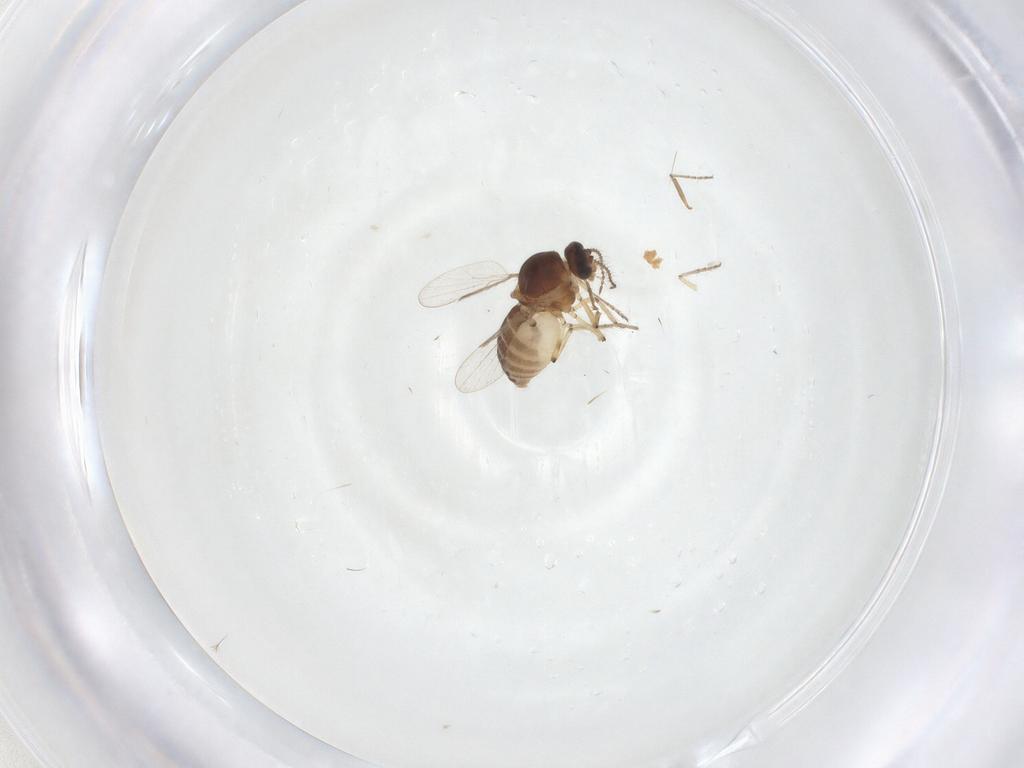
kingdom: Animalia
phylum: Arthropoda
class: Insecta
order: Diptera
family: Ceratopogonidae
